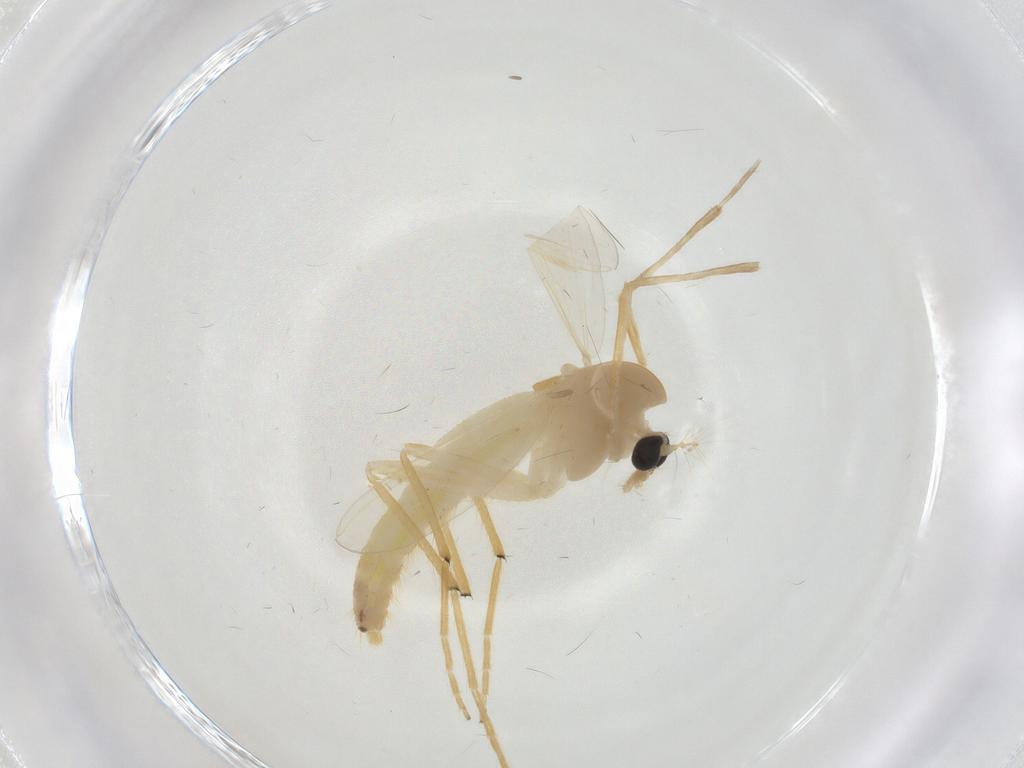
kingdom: Animalia
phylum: Arthropoda
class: Insecta
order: Diptera
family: Chironomidae
